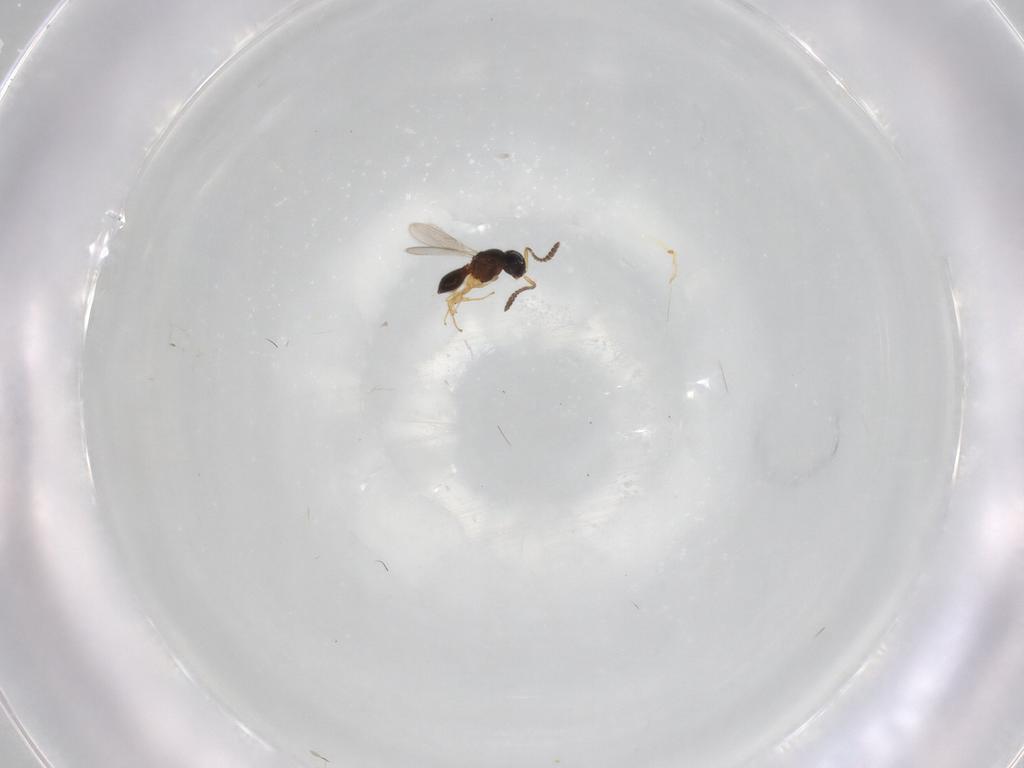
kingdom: Animalia
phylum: Arthropoda
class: Insecta
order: Hymenoptera
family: Scelionidae
